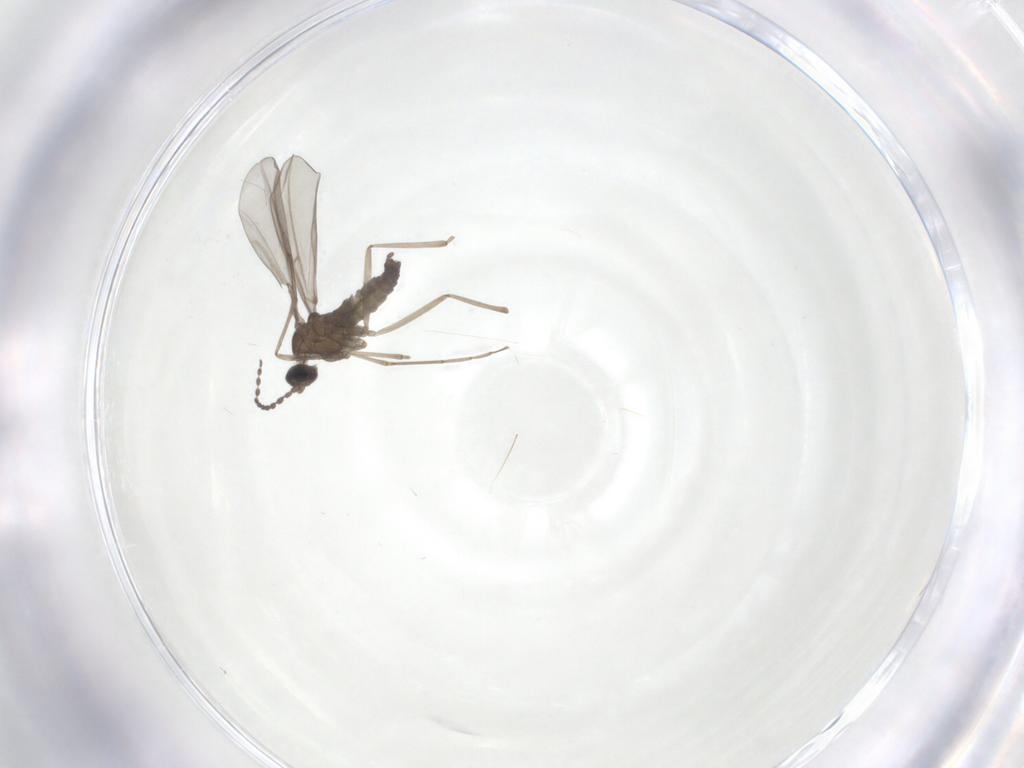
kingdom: Animalia
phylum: Arthropoda
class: Insecta
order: Diptera
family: Cecidomyiidae
